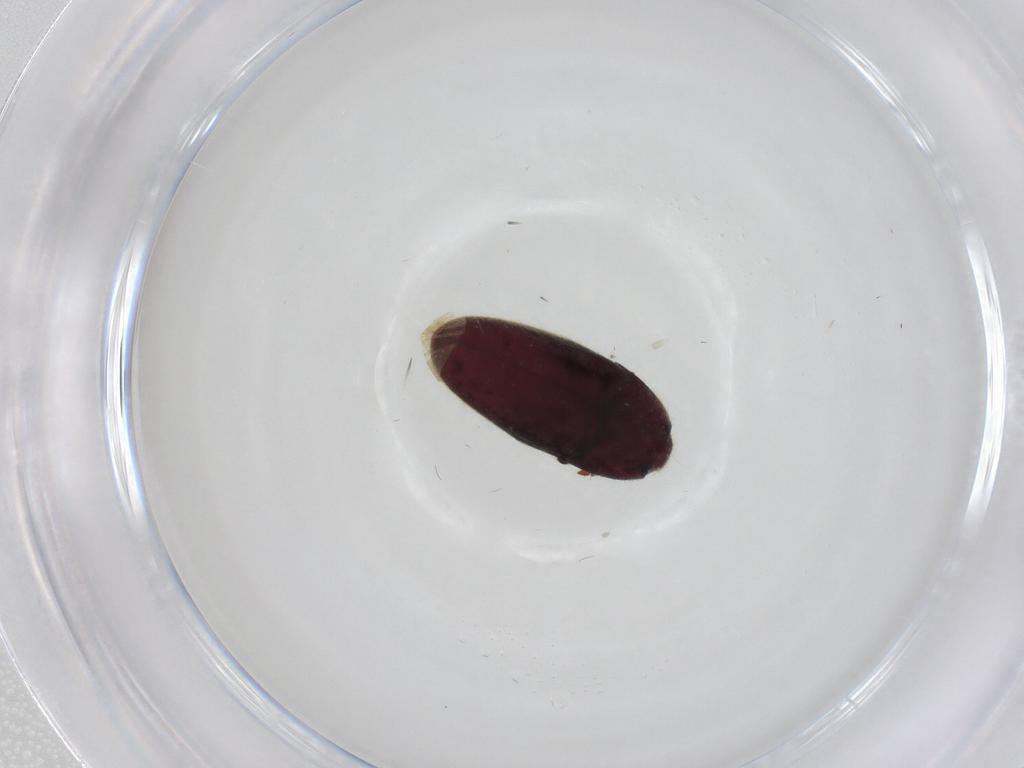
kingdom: Animalia
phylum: Arthropoda
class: Insecta
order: Coleoptera
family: Throscidae
